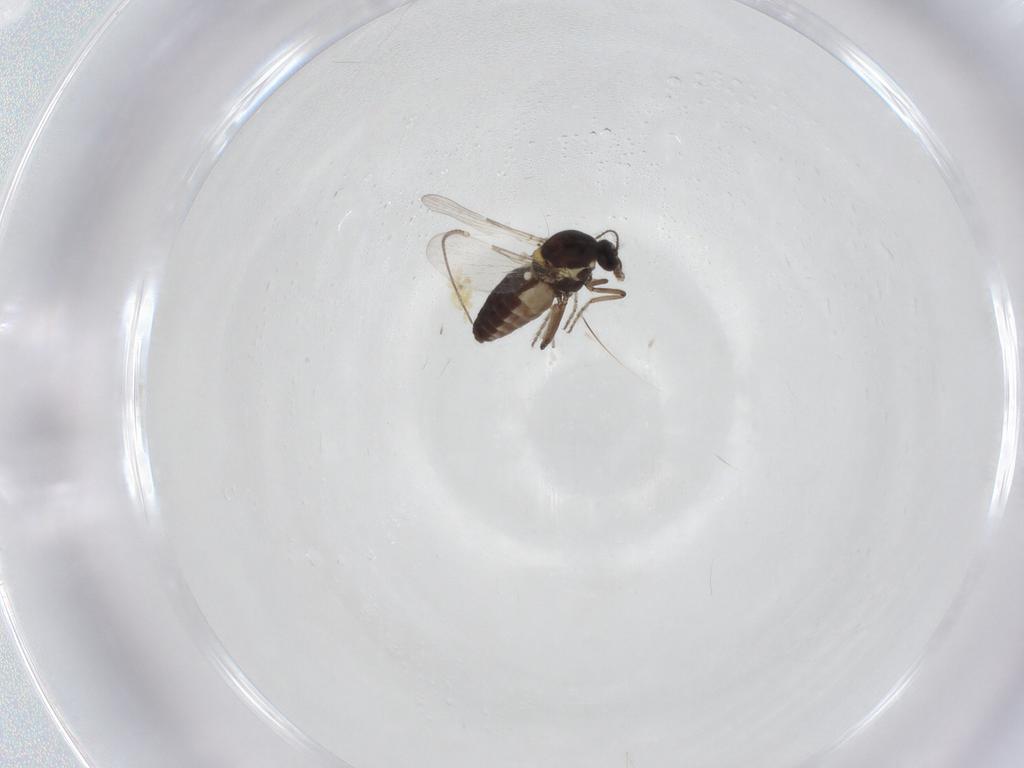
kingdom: Animalia
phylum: Arthropoda
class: Insecta
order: Diptera
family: Ceratopogonidae
